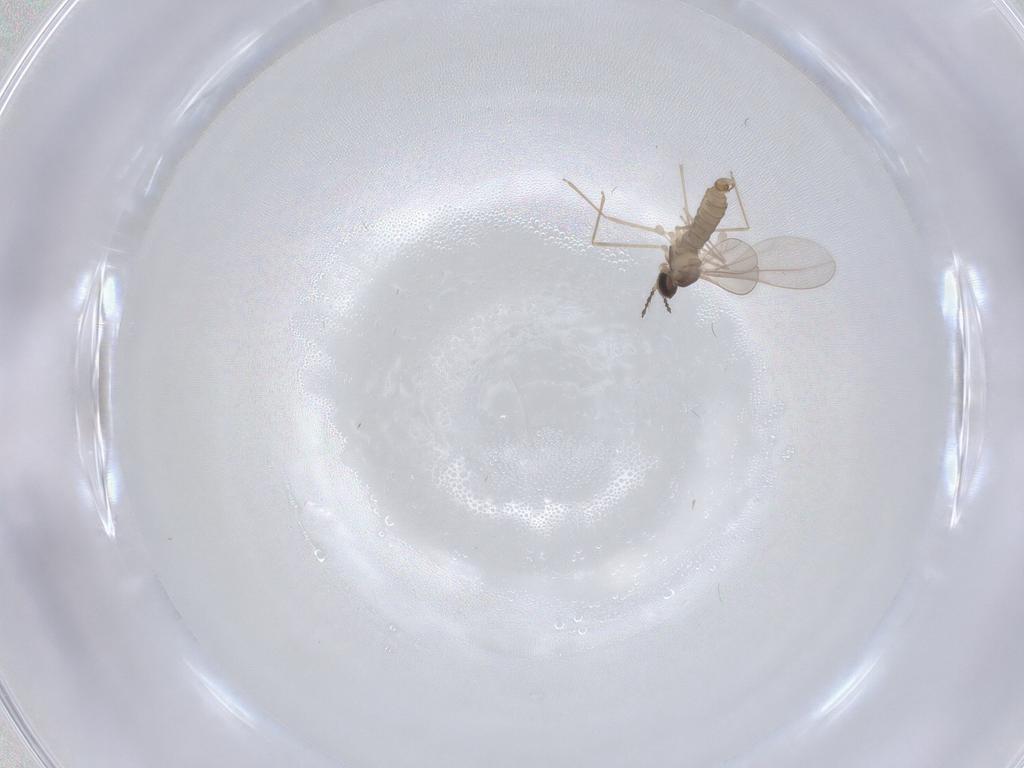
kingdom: Animalia
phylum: Arthropoda
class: Insecta
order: Diptera
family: Cecidomyiidae
